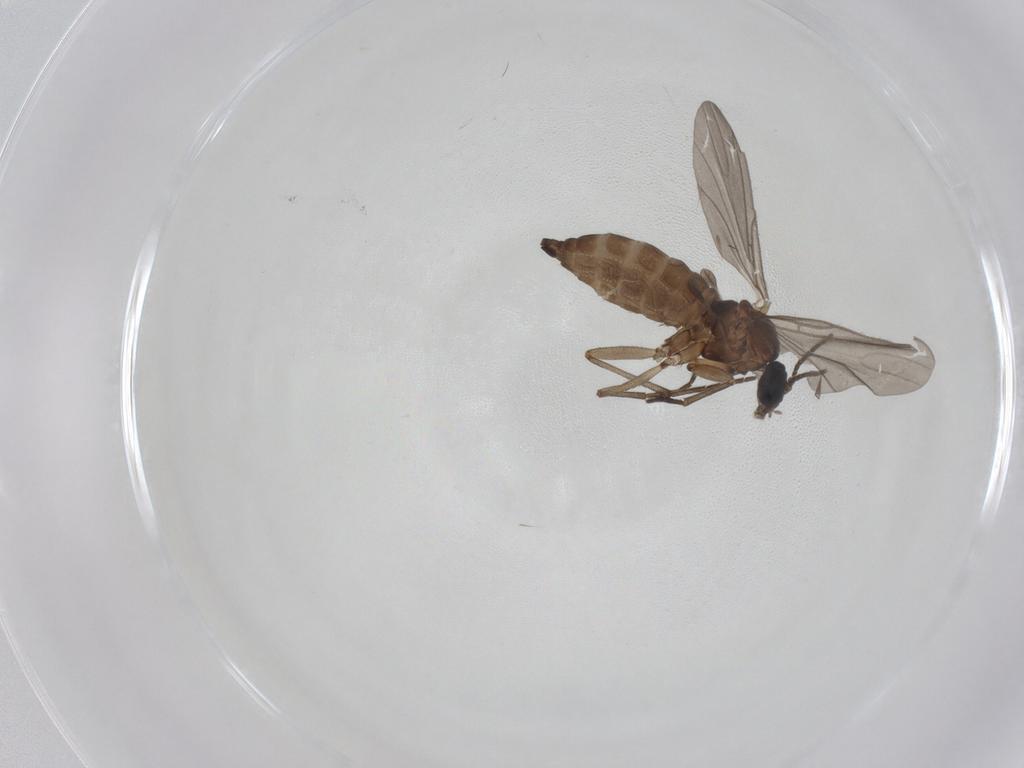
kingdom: Animalia
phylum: Arthropoda
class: Insecta
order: Diptera
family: Sciaridae
